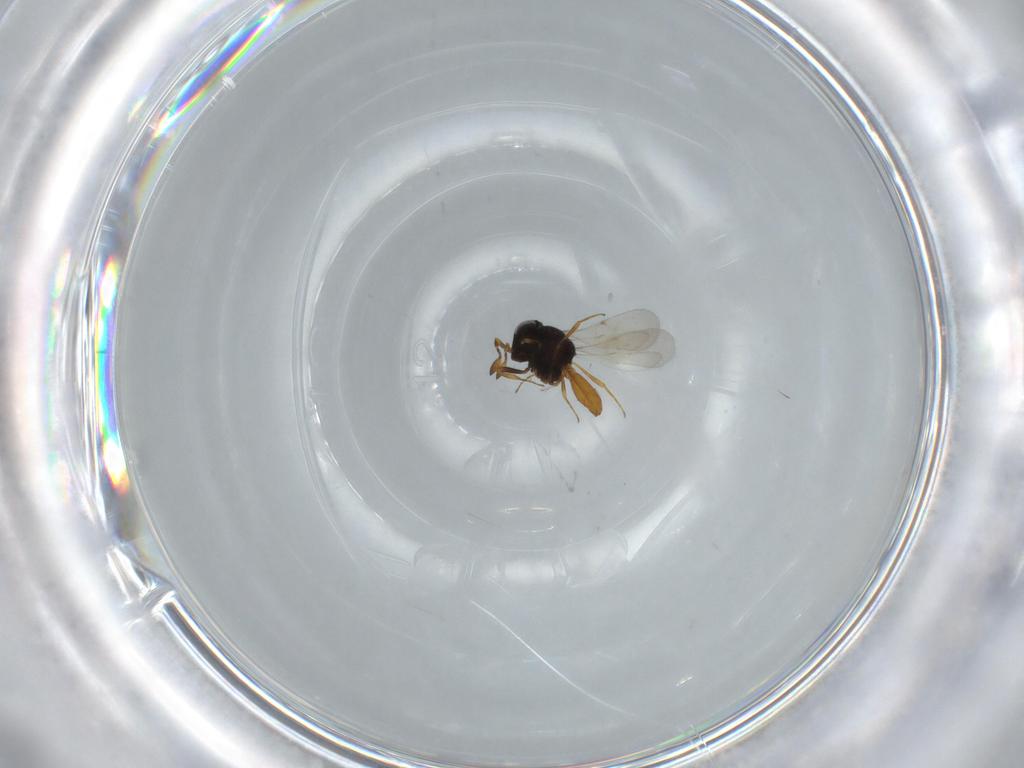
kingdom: Animalia
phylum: Arthropoda
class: Insecta
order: Hymenoptera
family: Scelionidae
